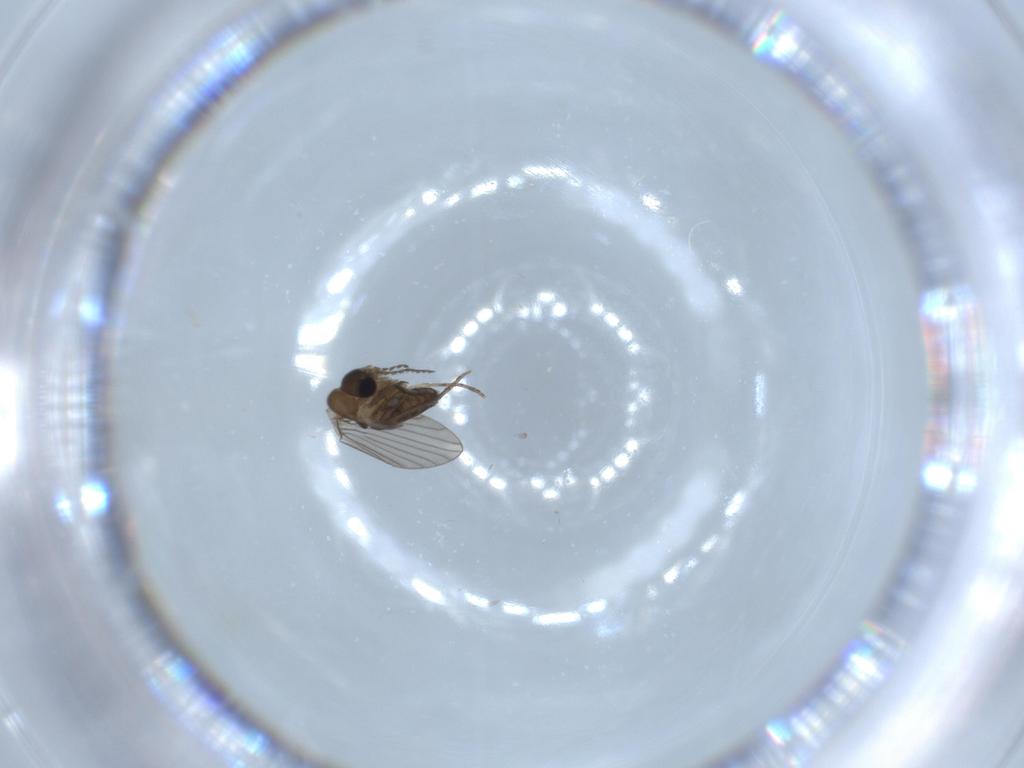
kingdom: Animalia
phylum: Arthropoda
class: Insecta
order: Diptera
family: Psychodidae
